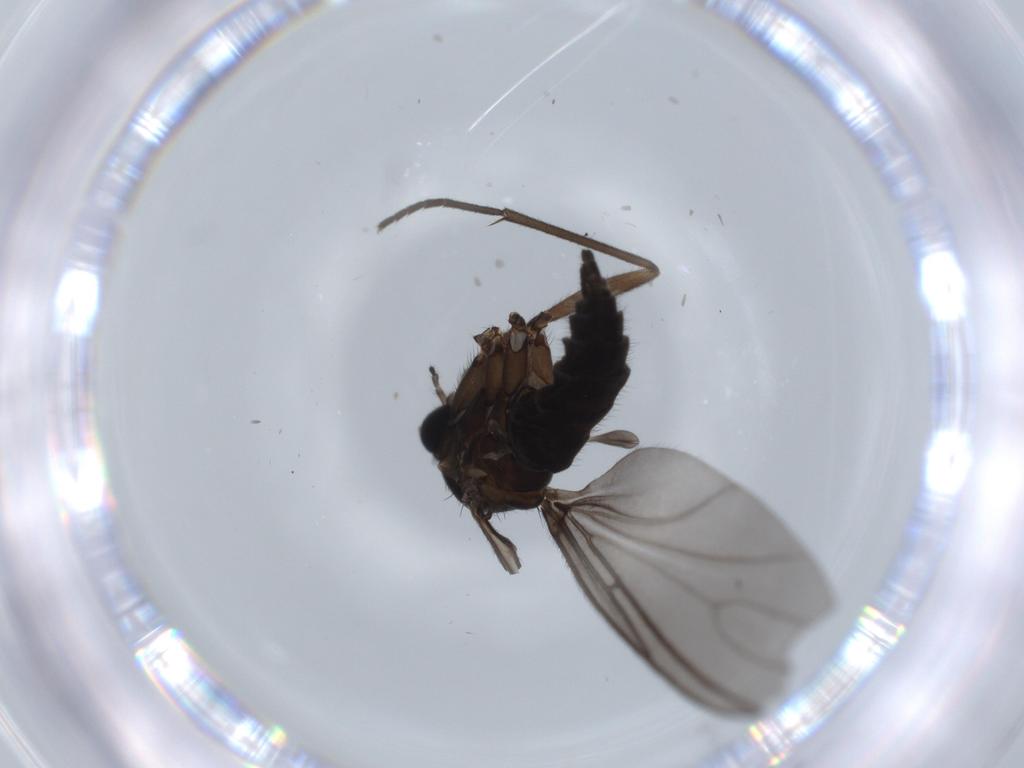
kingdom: Animalia
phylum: Arthropoda
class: Insecta
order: Diptera
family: Sciaridae
